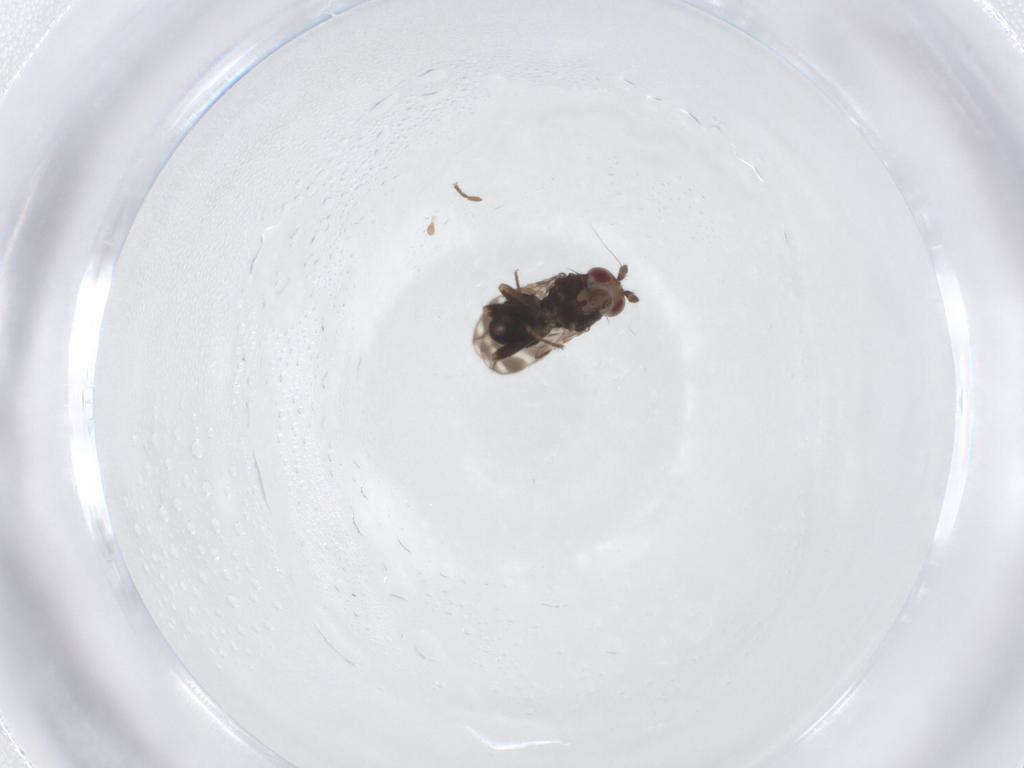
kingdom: Animalia
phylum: Arthropoda
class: Insecta
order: Diptera
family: Sphaeroceridae
